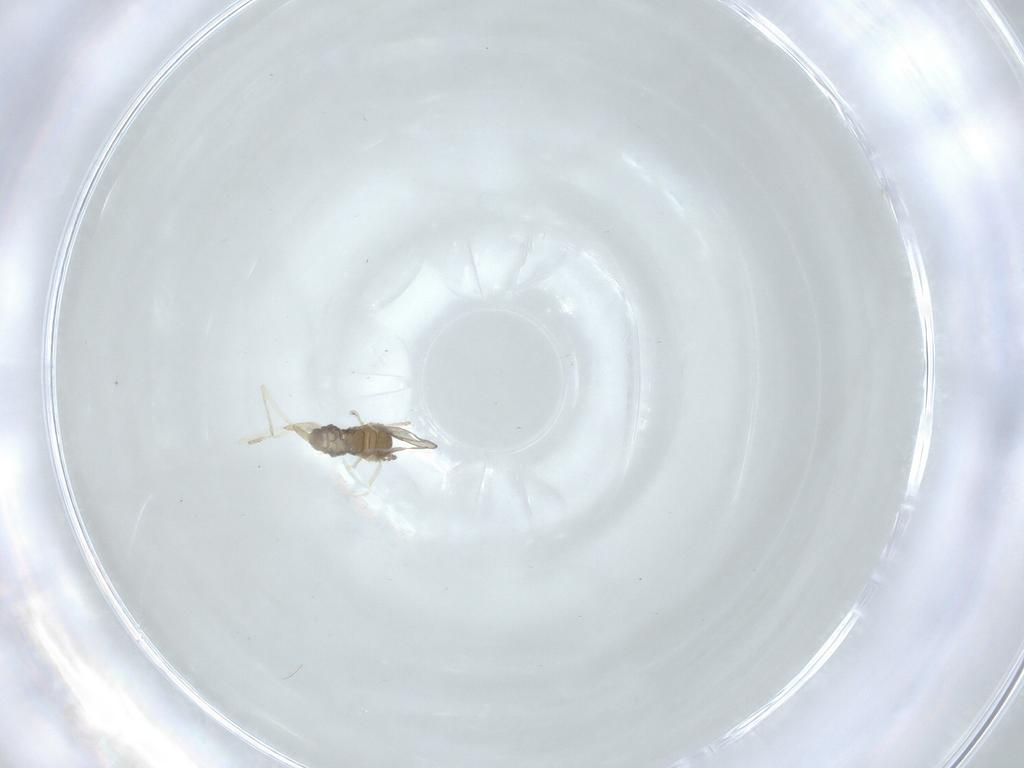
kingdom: Animalia
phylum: Arthropoda
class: Insecta
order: Diptera
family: Cecidomyiidae
